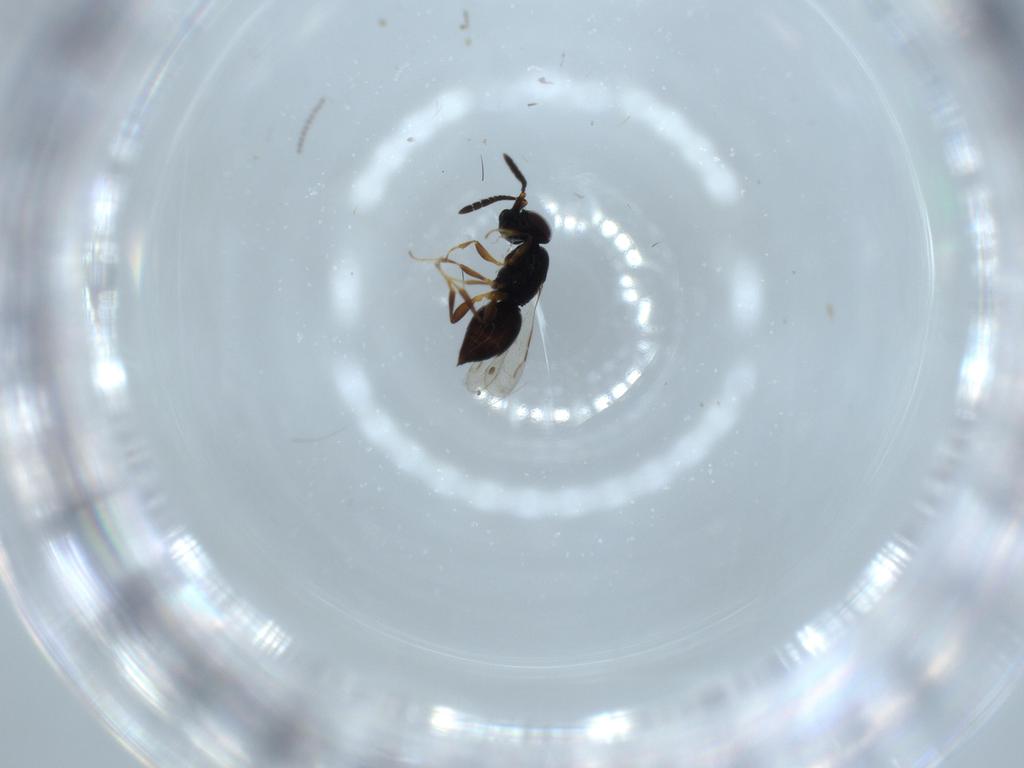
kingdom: Animalia
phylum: Arthropoda
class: Insecta
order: Hymenoptera
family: Ceraphronidae
